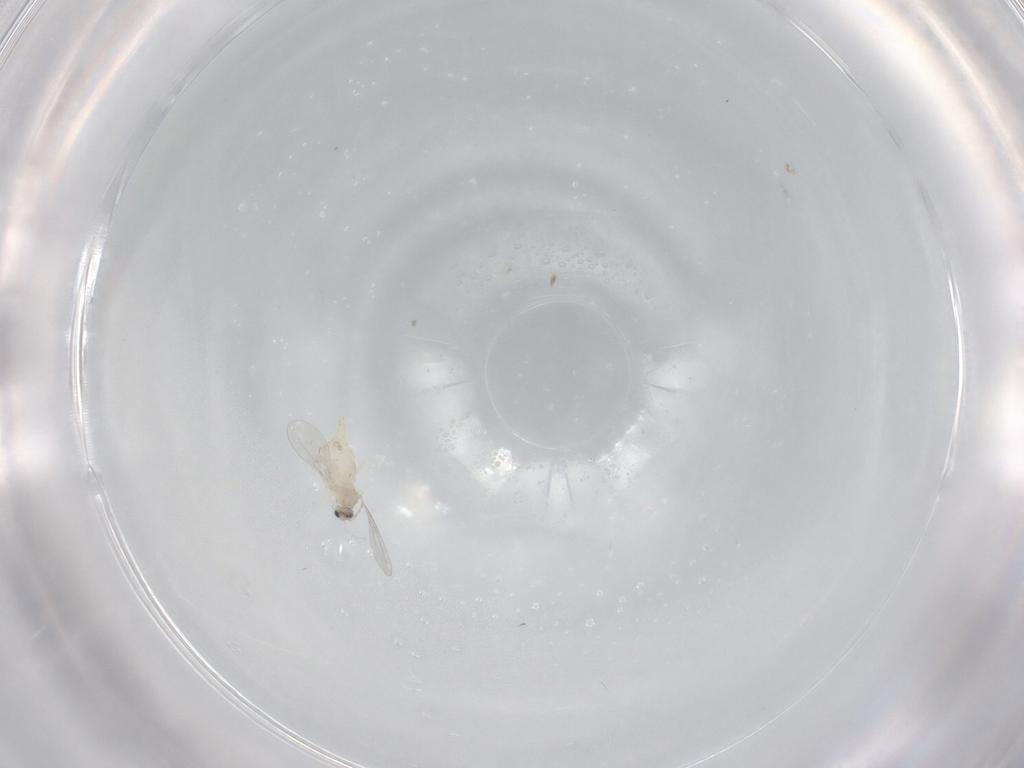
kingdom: Animalia
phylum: Arthropoda
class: Insecta
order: Diptera
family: Cecidomyiidae
